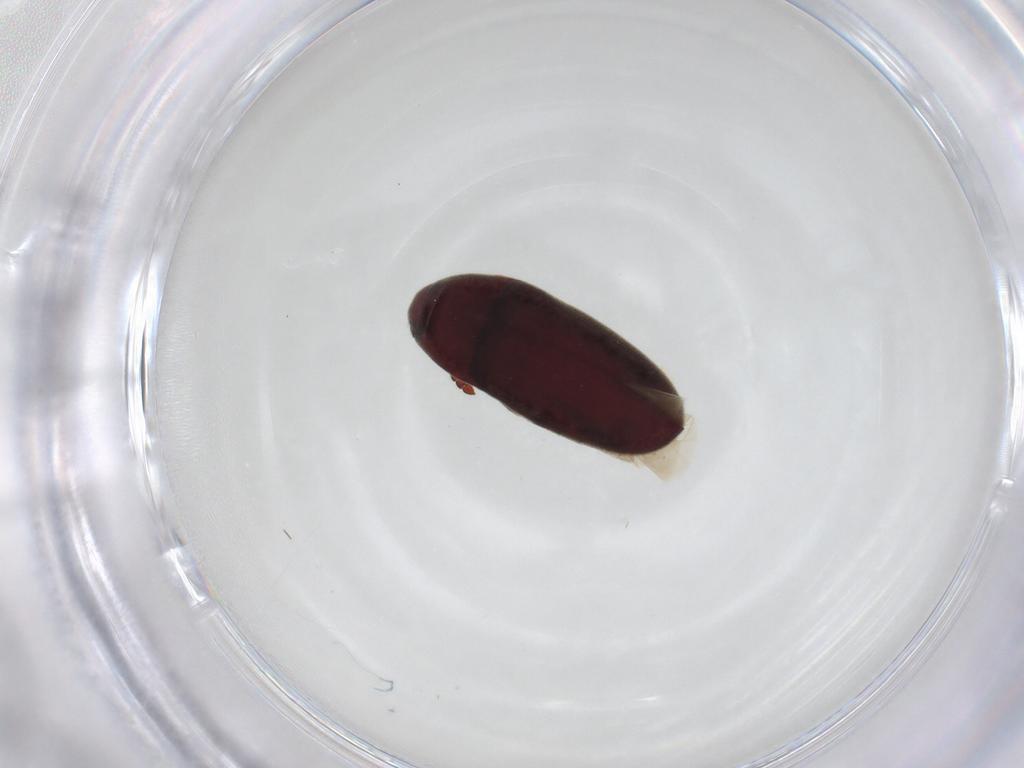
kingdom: Animalia
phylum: Arthropoda
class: Insecta
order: Coleoptera
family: Throscidae
